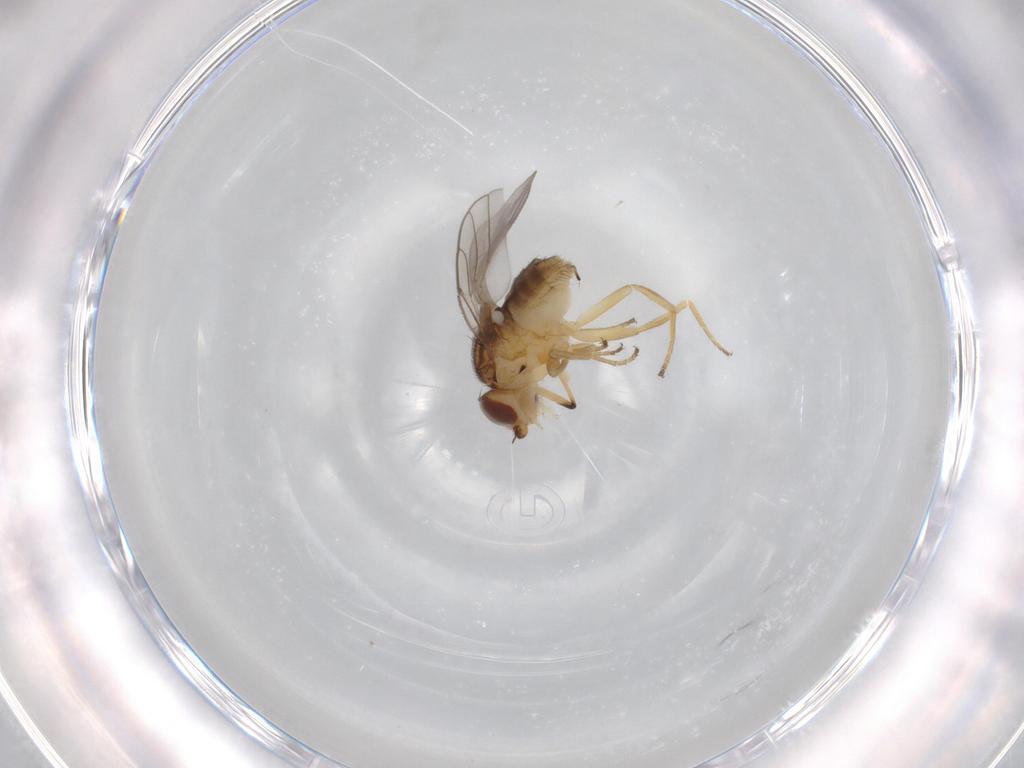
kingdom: Animalia
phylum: Arthropoda
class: Insecta
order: Diptera
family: Chloropidae
